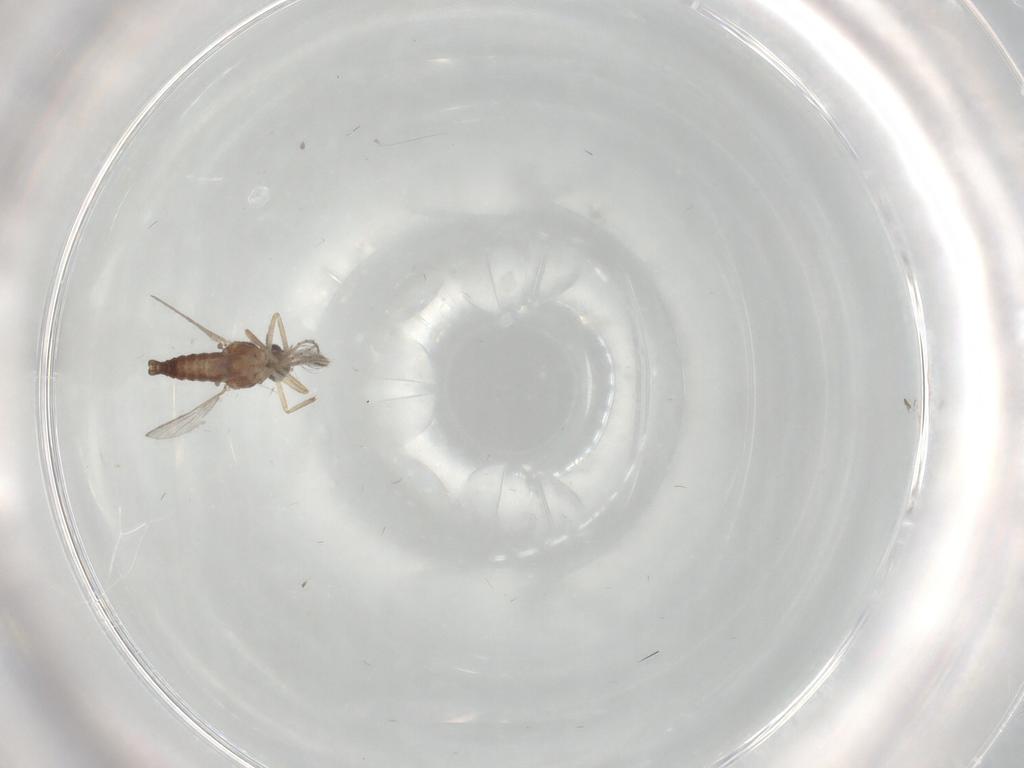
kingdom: Animalia
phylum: Arthropoda
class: Insecta
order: Diptera
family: Ceratopogonidae
